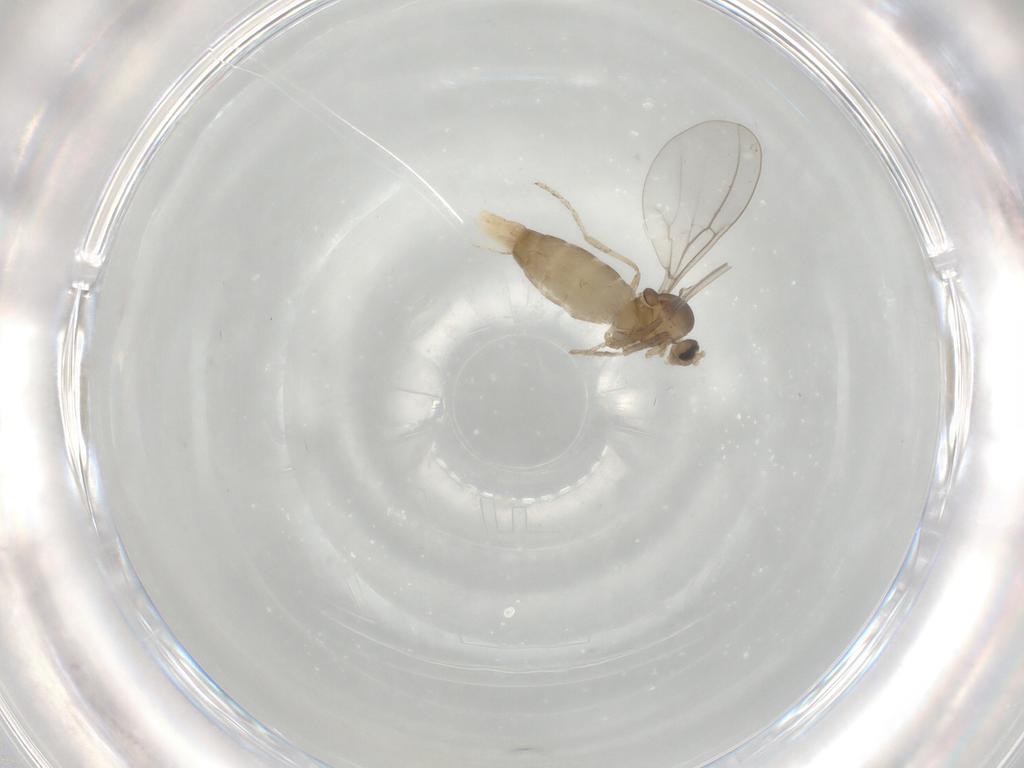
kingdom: Animalia
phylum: Arthropoda
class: Insecta
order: Diptera
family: Cecidomyiidae
